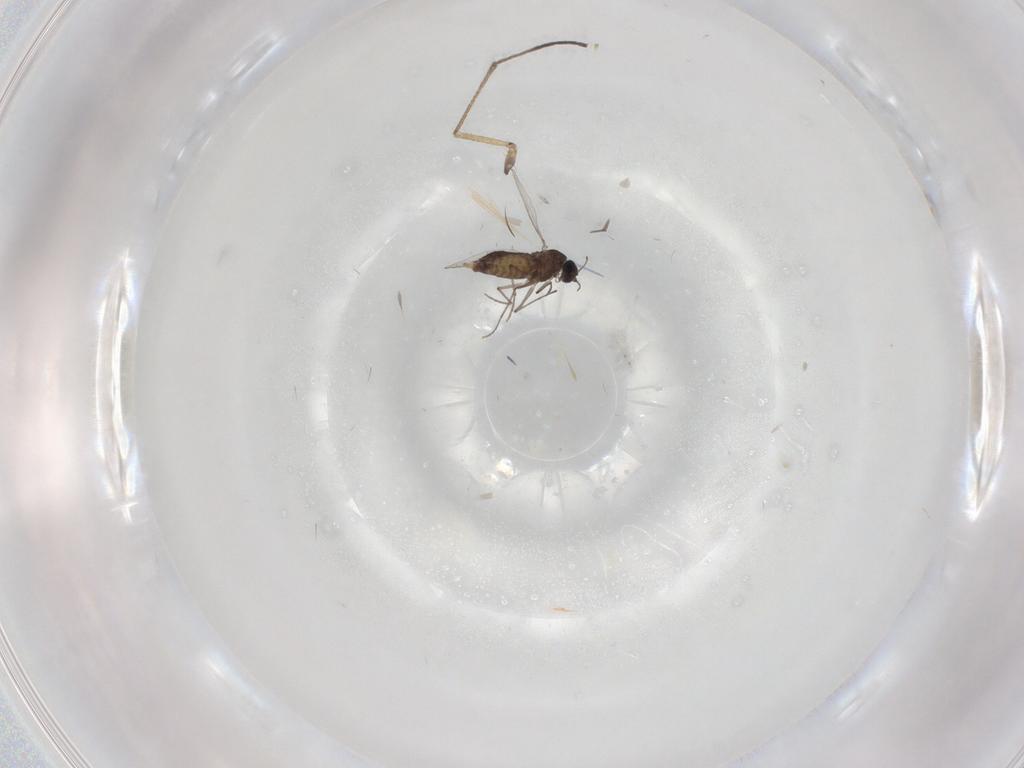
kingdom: Animalia
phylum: Arthropoda
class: Insecta
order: Diptera
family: Chironomidae
